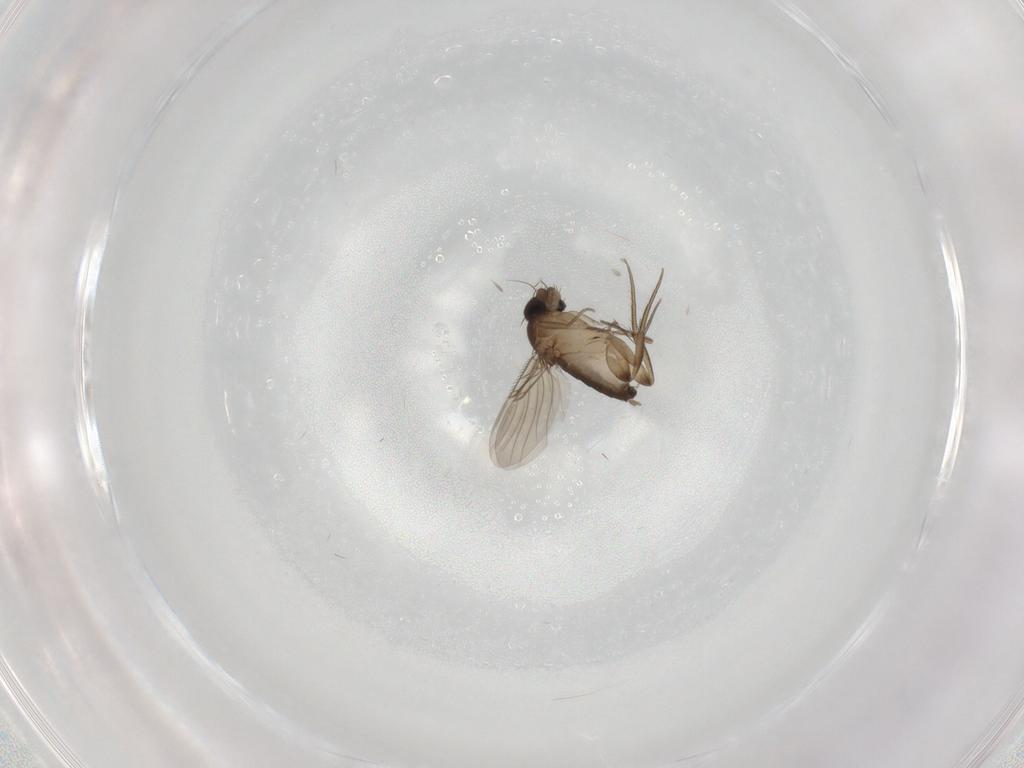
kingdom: Animalia
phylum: Arthropoda
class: Insecta
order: Diptera
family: Phoridae
